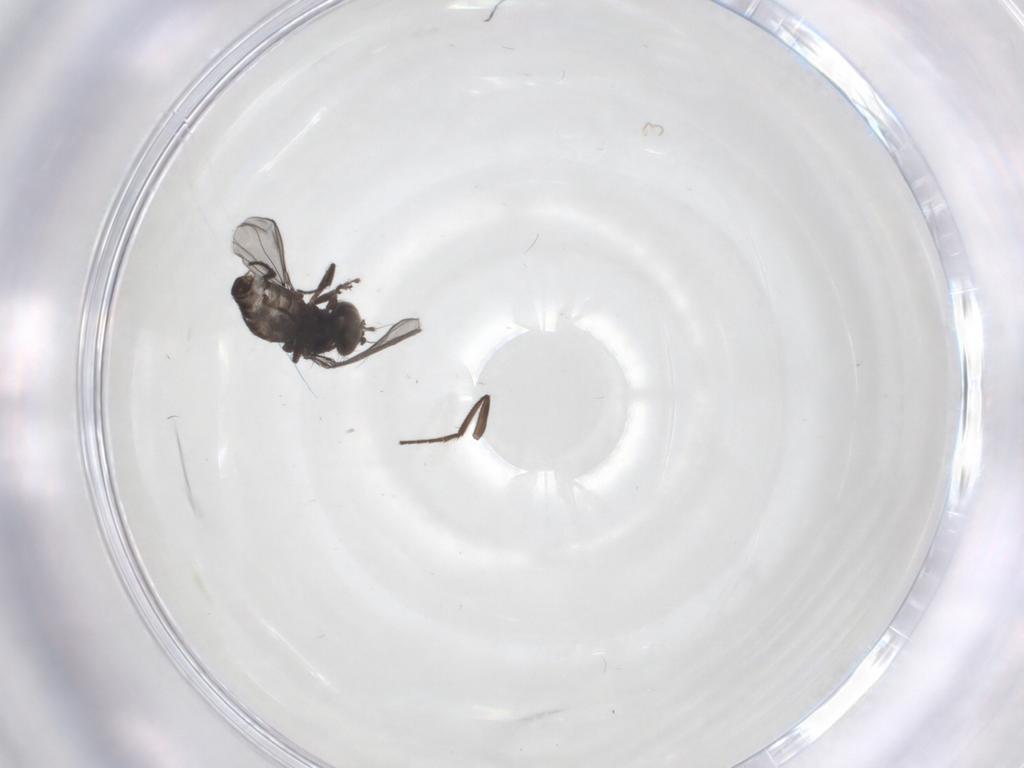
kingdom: Animalia
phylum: Arthropoda
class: Insecta
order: Diptera
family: Dolichopodidae
